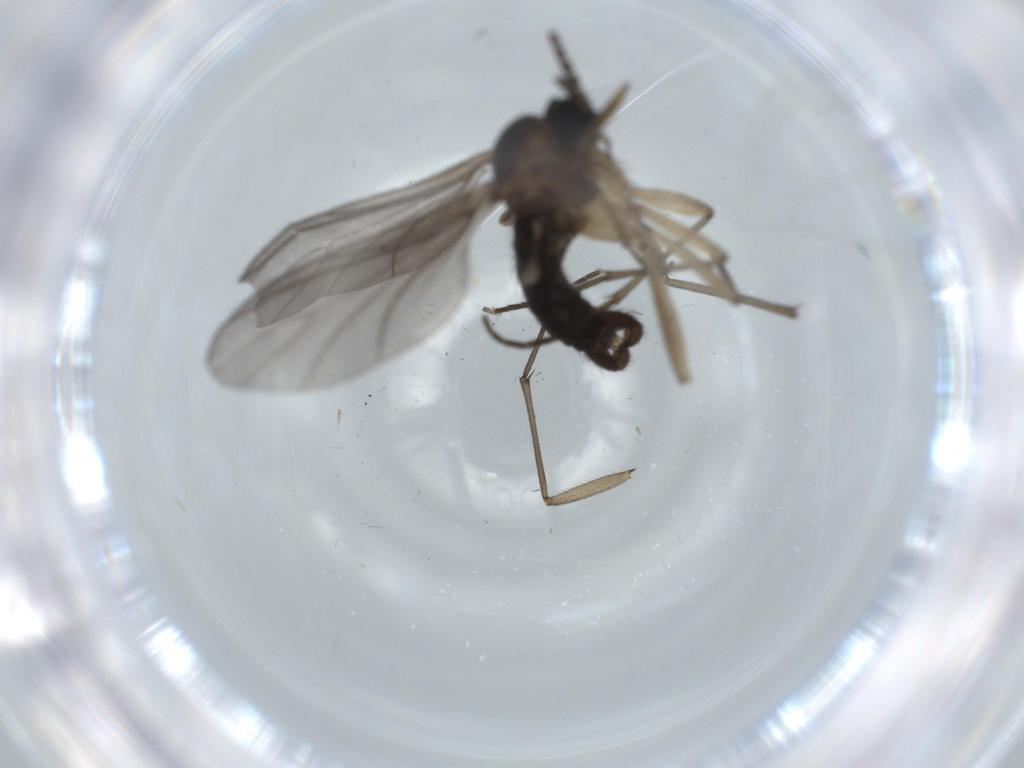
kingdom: Animalia
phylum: Arthropoda
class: Insecta
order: Diptera
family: Sciaridae
